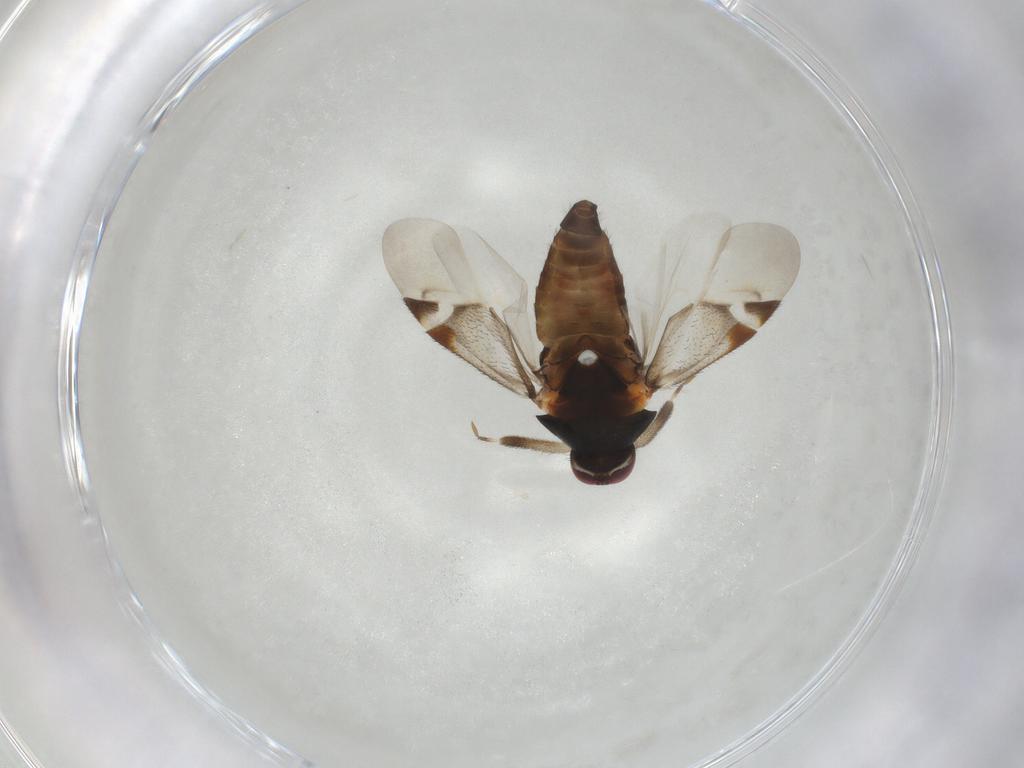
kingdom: Animalia
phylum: Arthropoda
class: Insecta
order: Hemiptera
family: Miridae
